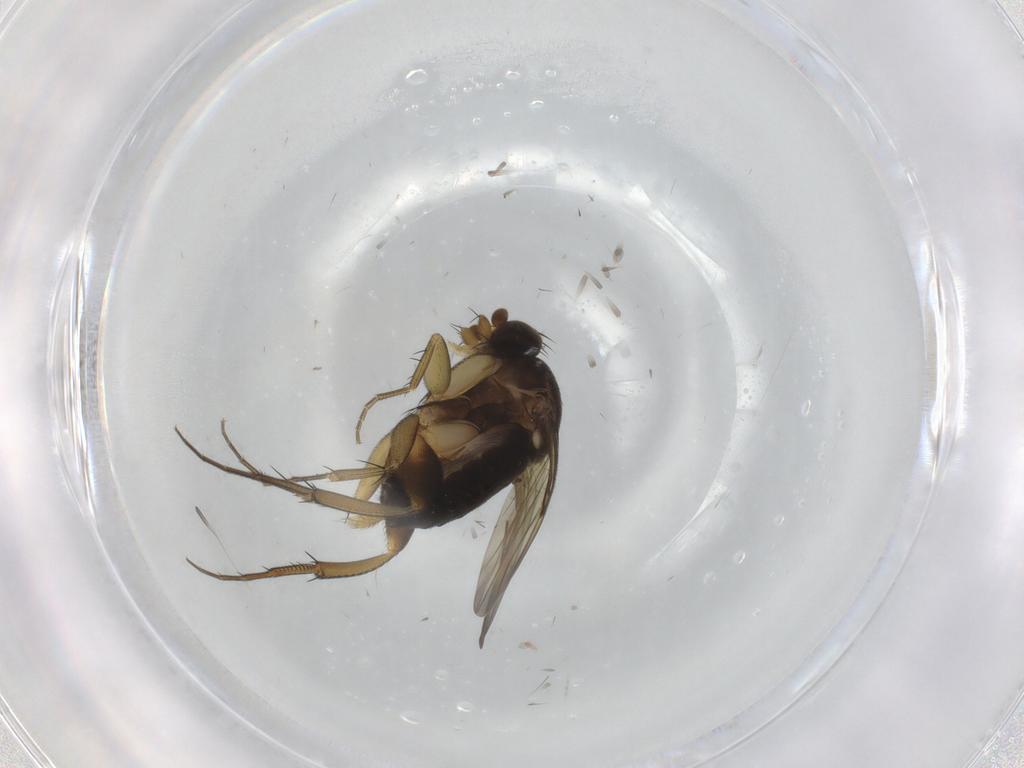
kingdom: Animalia
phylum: Arthropoda
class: Insecta
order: Diptera
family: Phoridae
